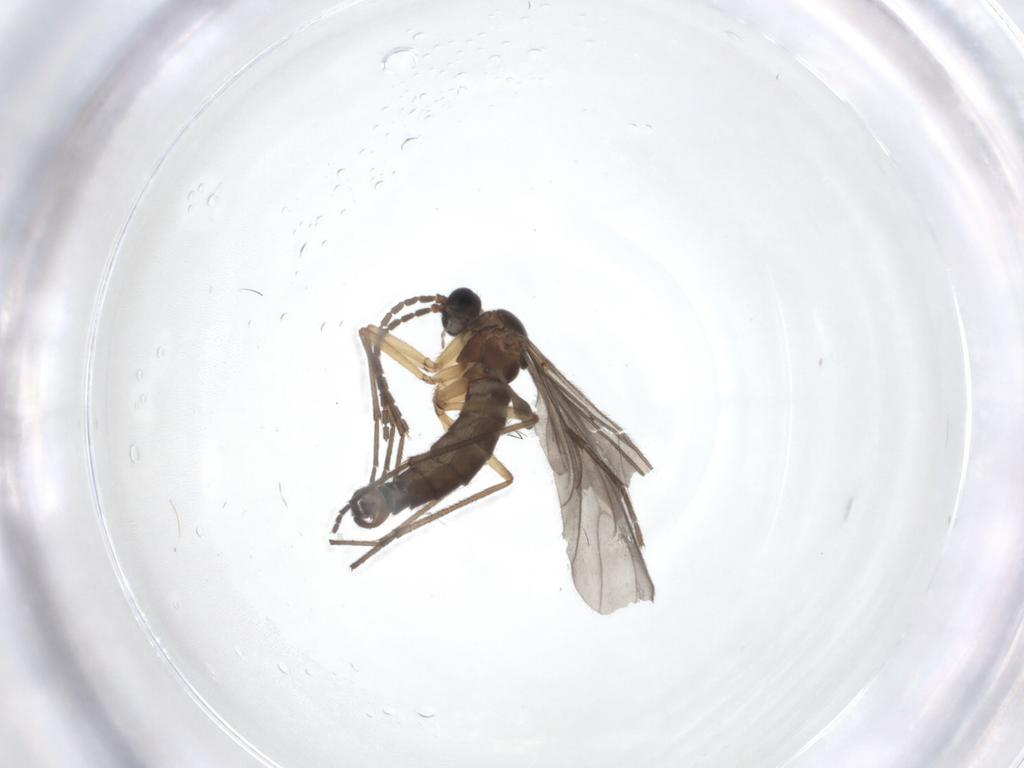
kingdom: Animalia
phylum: Arthropoda
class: Insecta
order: Diptera
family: Sciaridae
